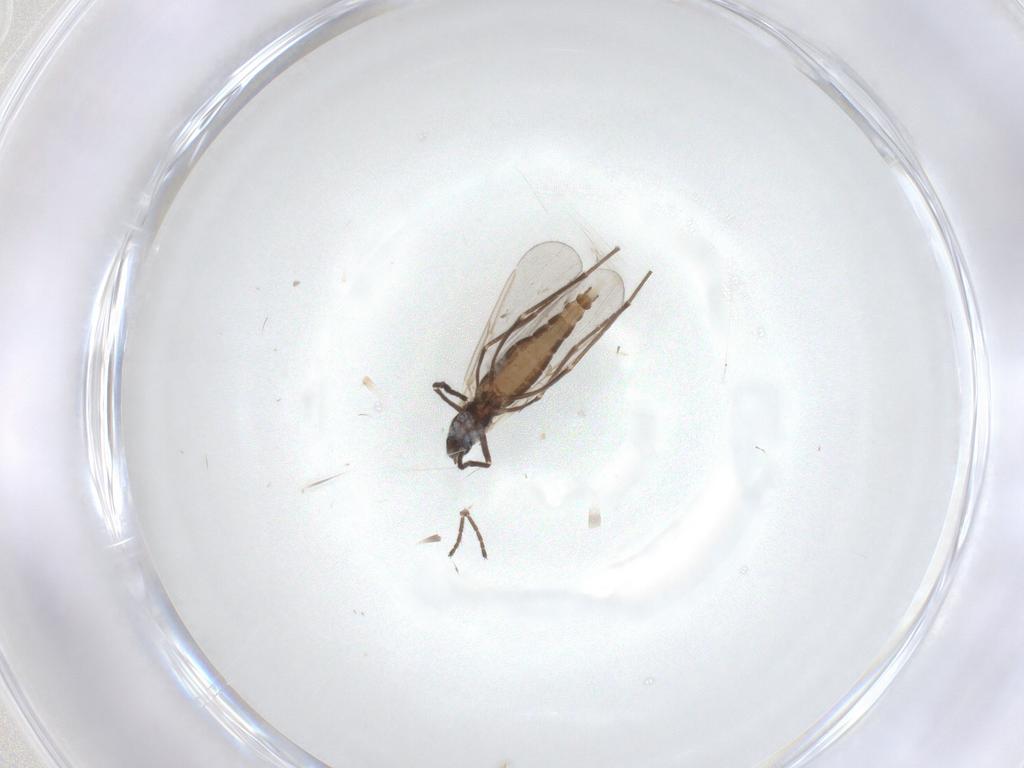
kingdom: Animalia
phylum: Arthropoda
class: Insecta
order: Diptera
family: Cecidomyiidae
